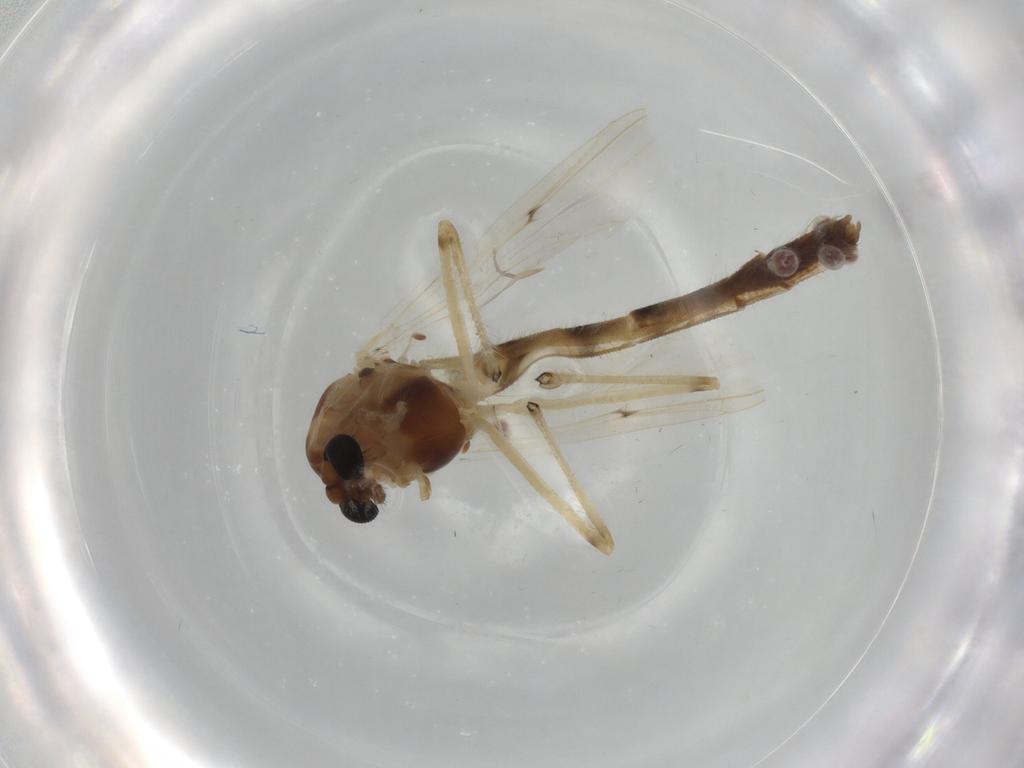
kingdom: Animalia
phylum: Arthropoda
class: Insecta
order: Diptera
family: Chironomidae
